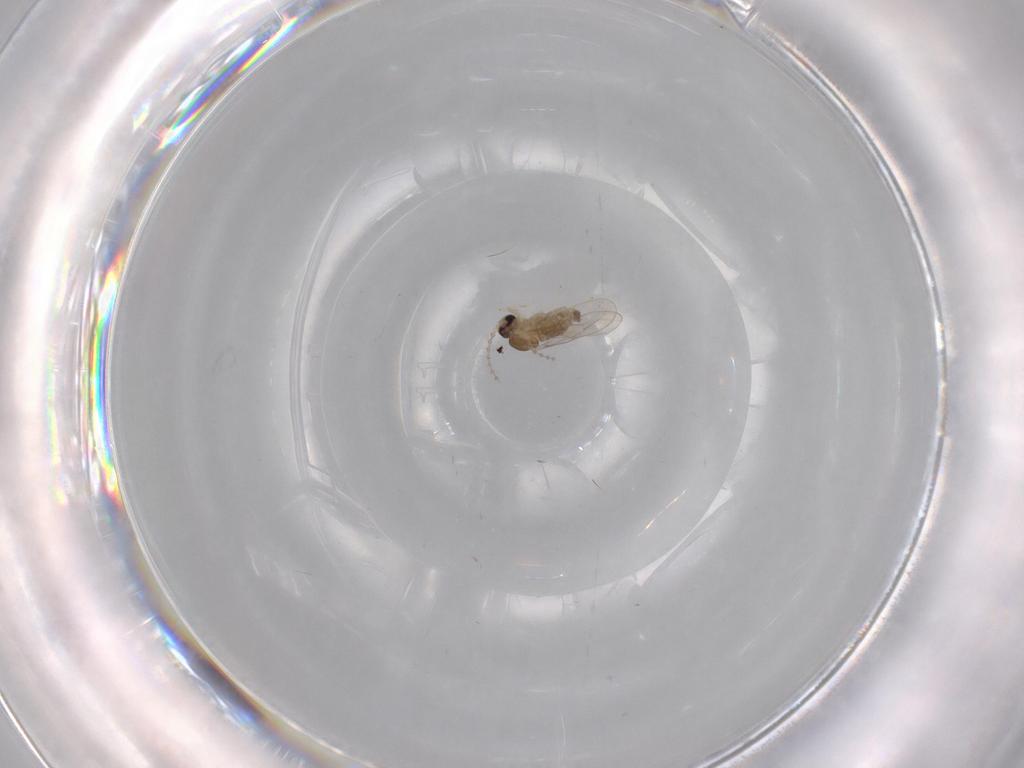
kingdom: Animalia
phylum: Arthropoda
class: Insecta
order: Diptera
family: Cecidomyiidae
